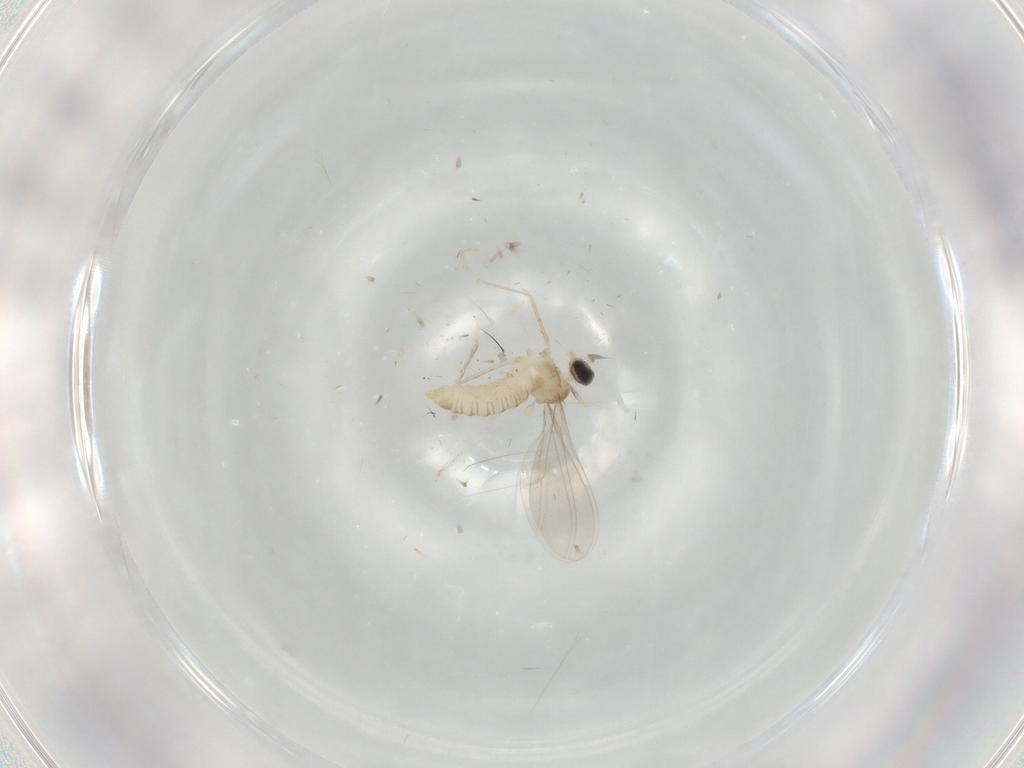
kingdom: Animalia
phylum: Arthropoda
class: Insecta
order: Diptera
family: Cecidomyiidae
